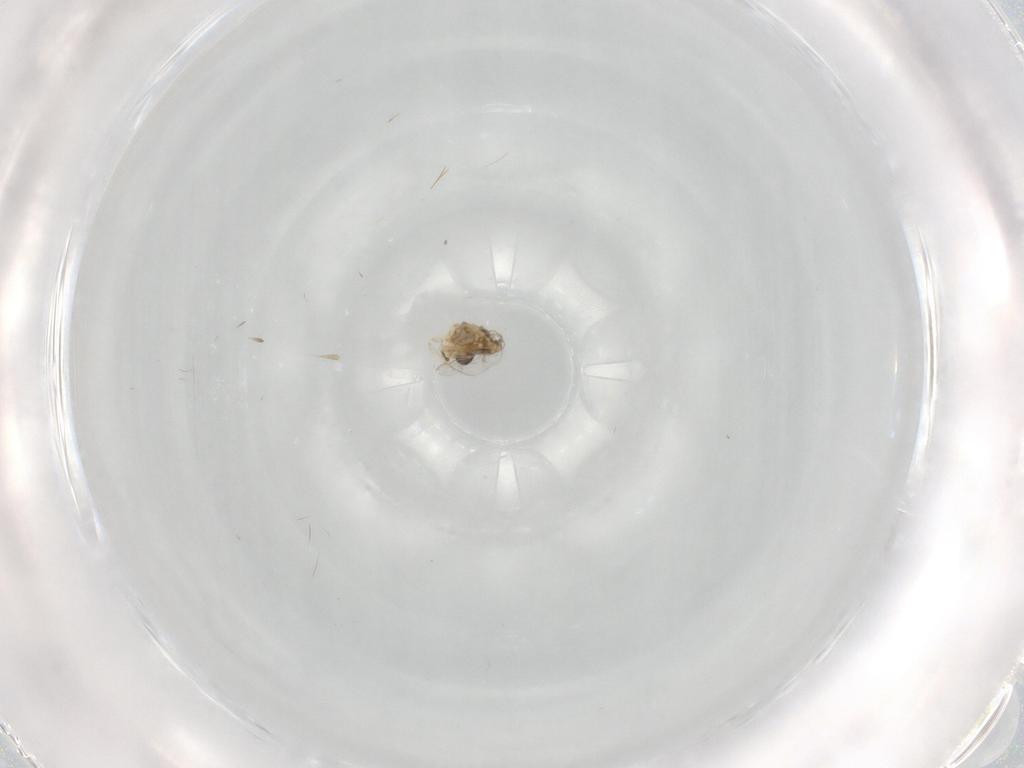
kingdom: Animalia
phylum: Arthropoda
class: Insecta
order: Diptera
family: Cecidomyiidae
